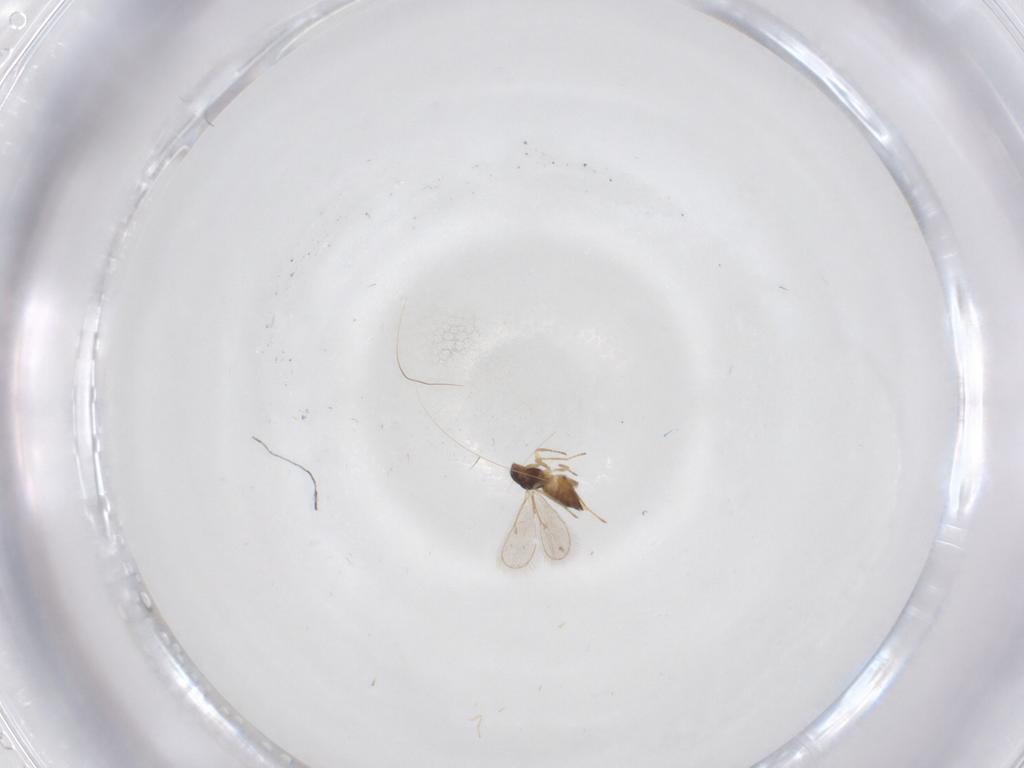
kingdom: Animalia
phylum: Arthropoda
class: Insecta
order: Hymenoptera
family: Eulophidae
